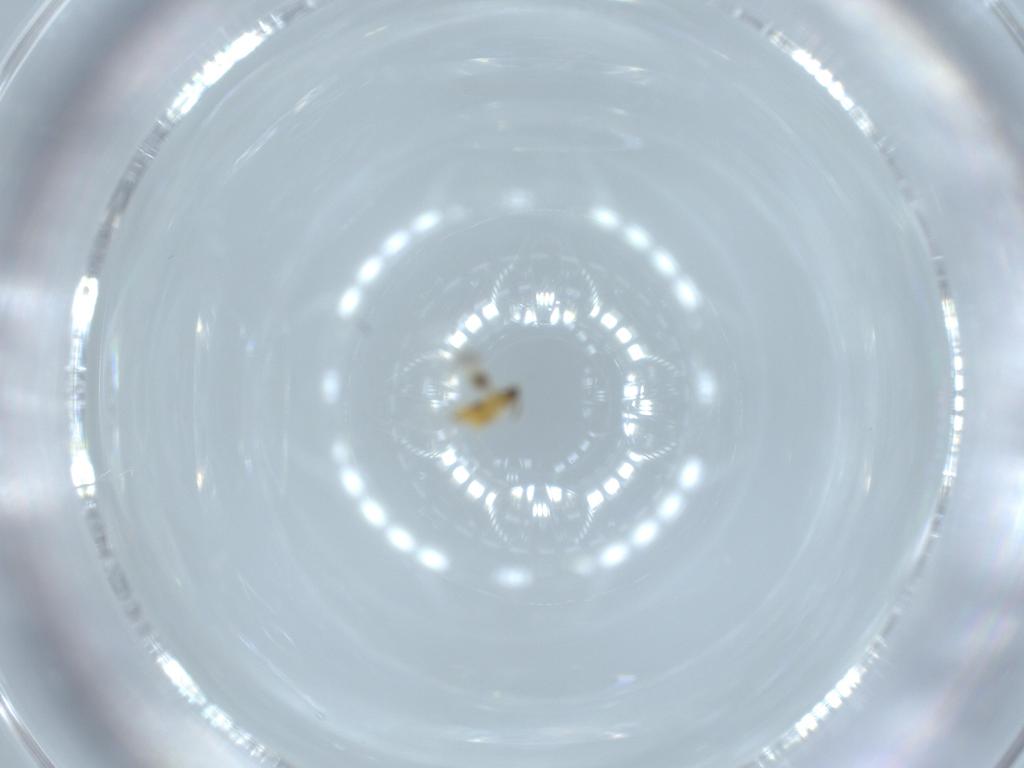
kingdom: Animalia
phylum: Arthropoda
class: Insecta
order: Hymenoptera
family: Signiphoridae
